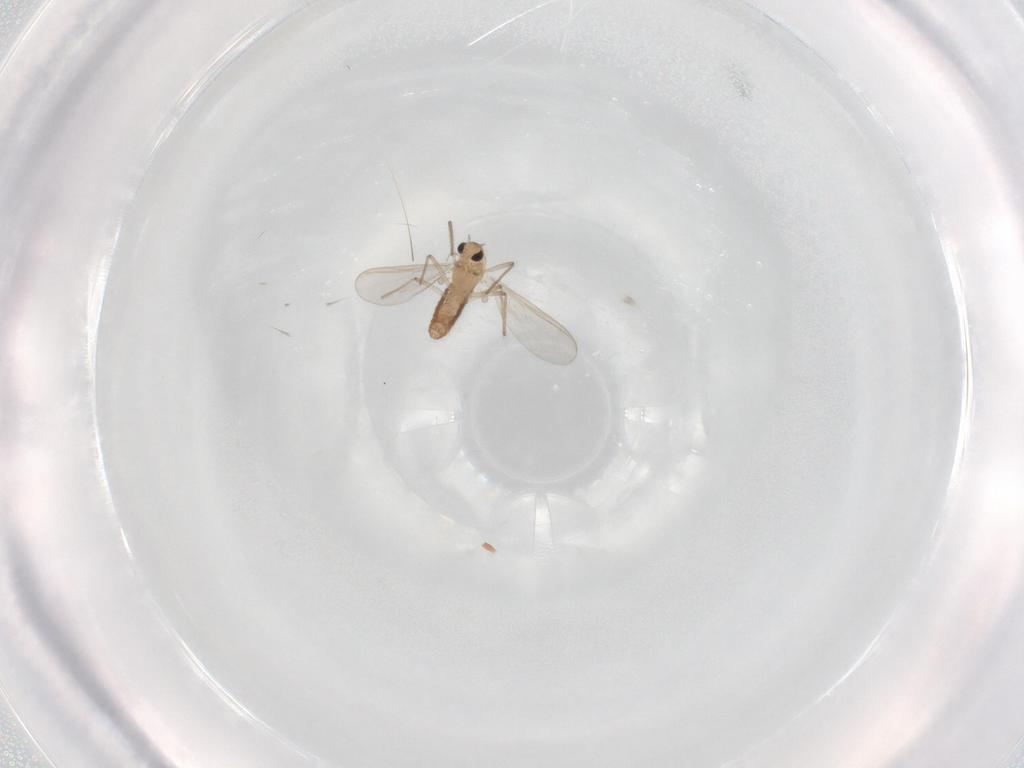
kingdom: Animalia
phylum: Arthropoda
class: Insecta
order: Diptera
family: Chironomidae
